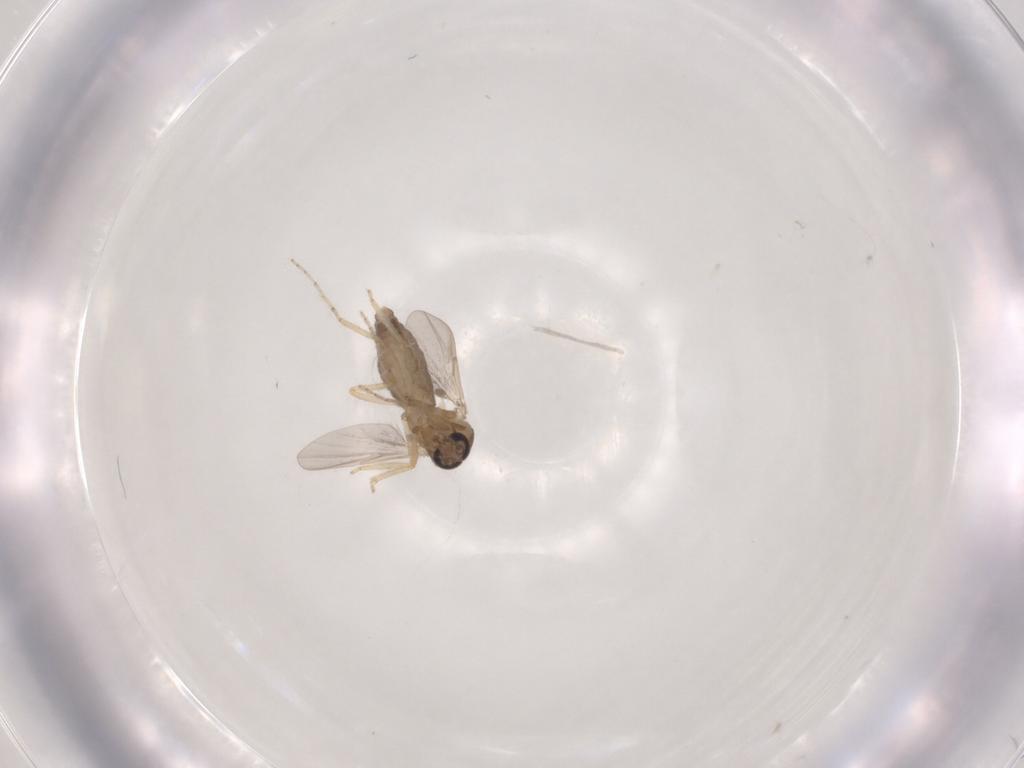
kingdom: Animalia
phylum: Arthropoda
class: Insecta
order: Diptera
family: Ceratopogonidae
